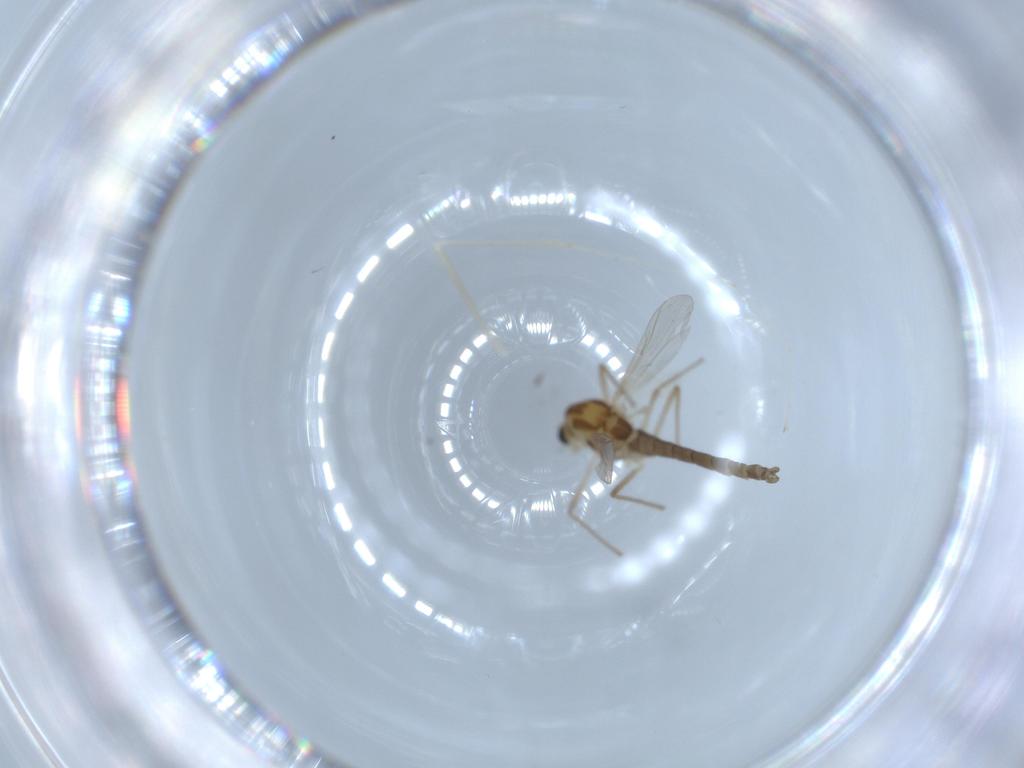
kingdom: Animalia
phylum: Arthropoda
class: Insecta
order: Diptera
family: Chironomidae
